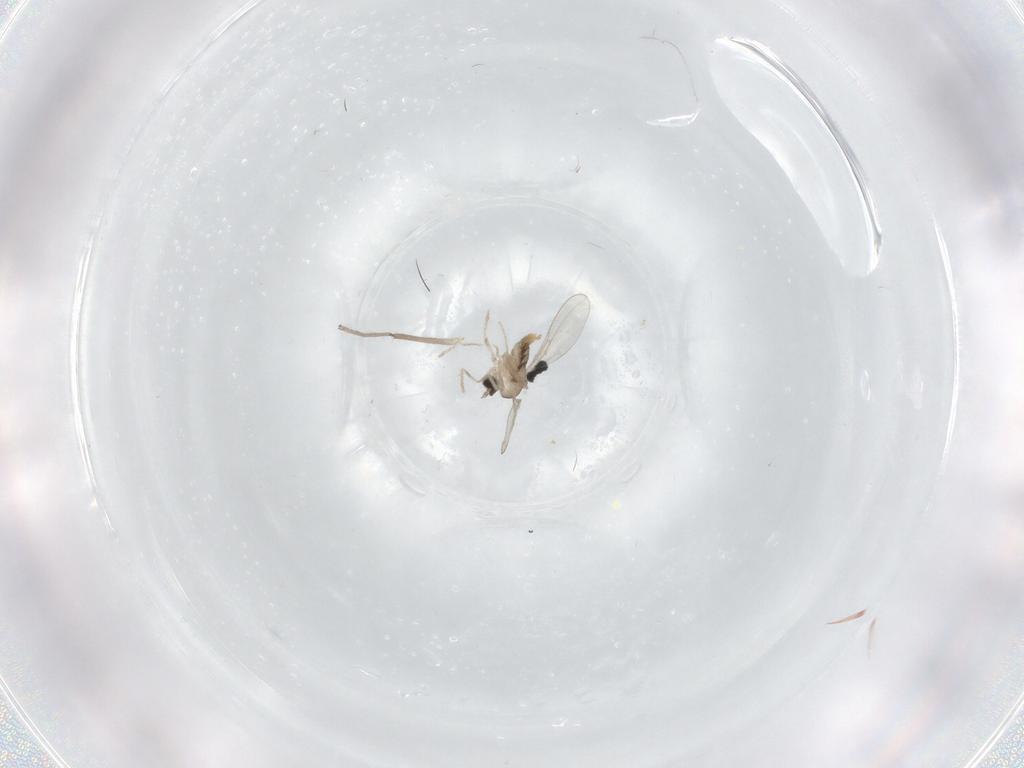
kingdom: Animalia
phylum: Arthropoda
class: Insecta
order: Diptera
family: Cecidomyiidae
